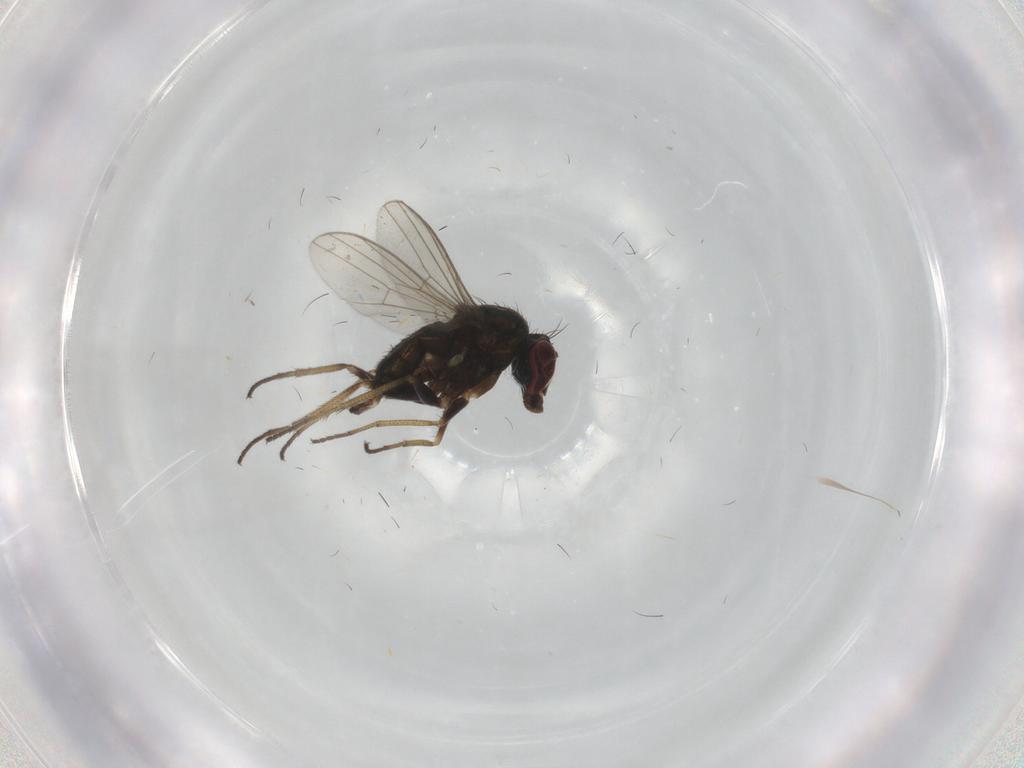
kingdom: Animalia
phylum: Arthropoda
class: Insecta
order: Diptera
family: Dolichopodidae
